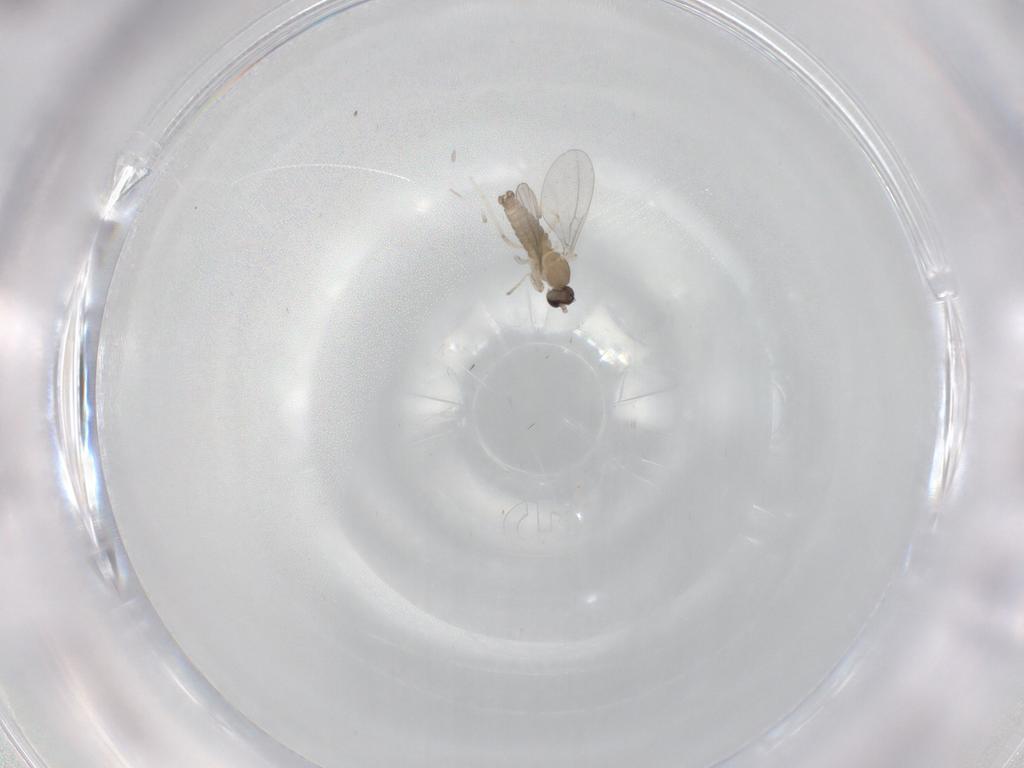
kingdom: Animalia
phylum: Arthropoda
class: Insecta
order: Diptera
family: Cecidomyiidae
